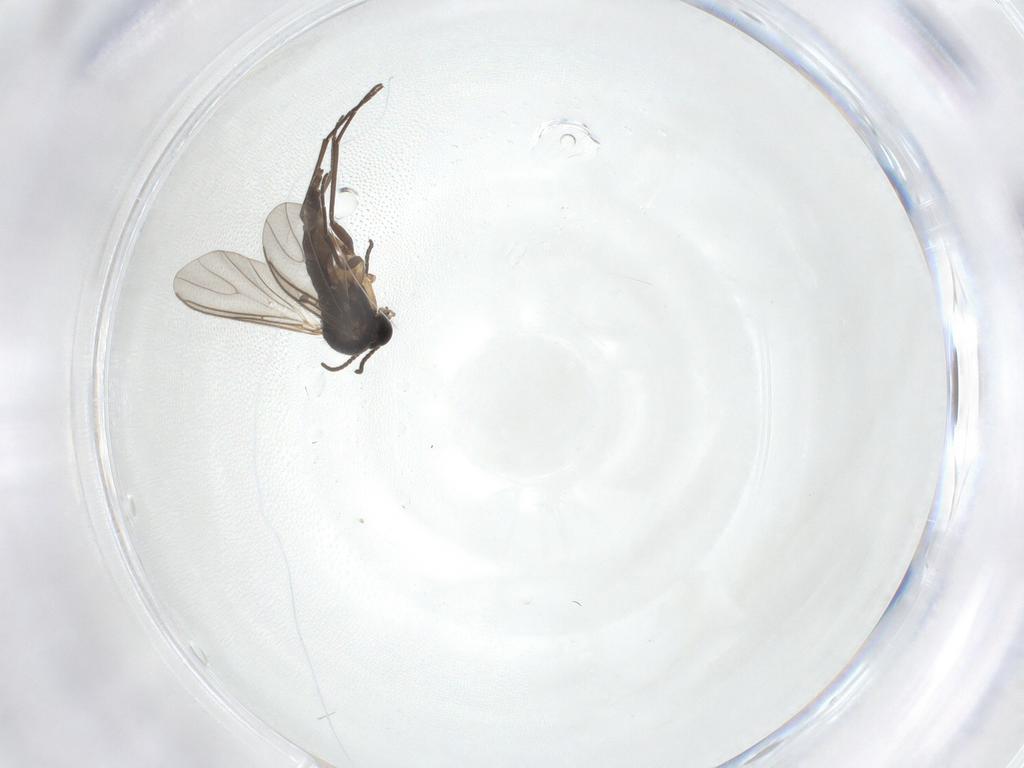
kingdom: Animalia
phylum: Arthropoda
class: Insecta
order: Diptera
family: Sciaridae
